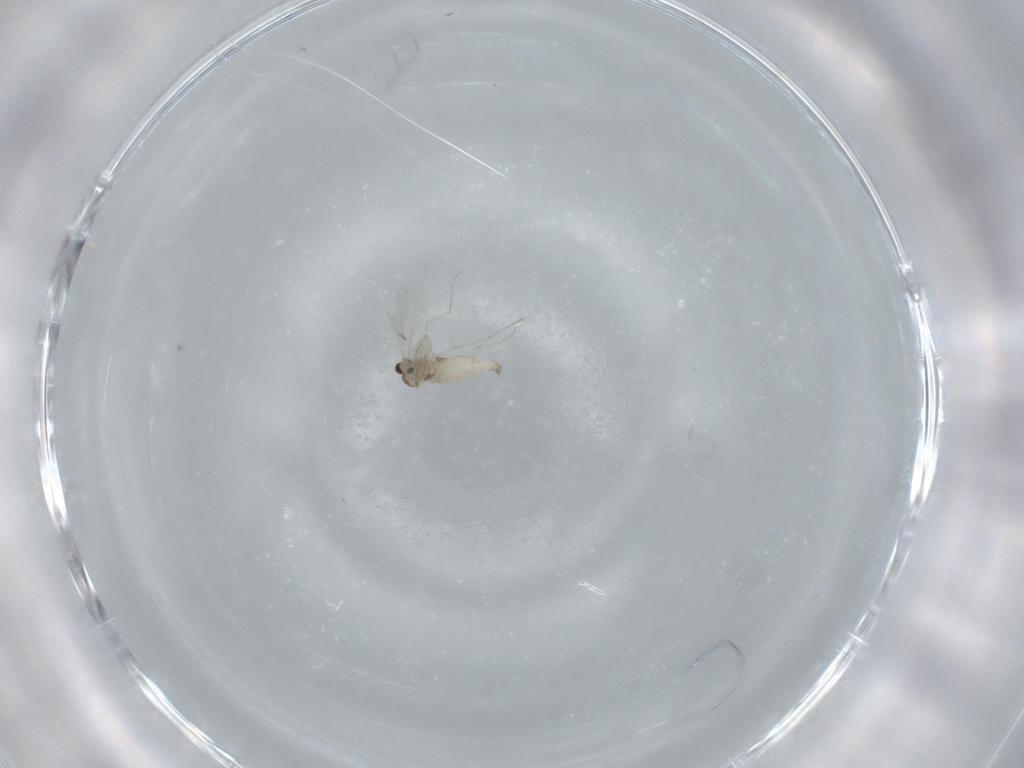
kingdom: Animalia
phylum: Arthropoda
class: Insecta
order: Diptera
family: Cecidomyiidae
